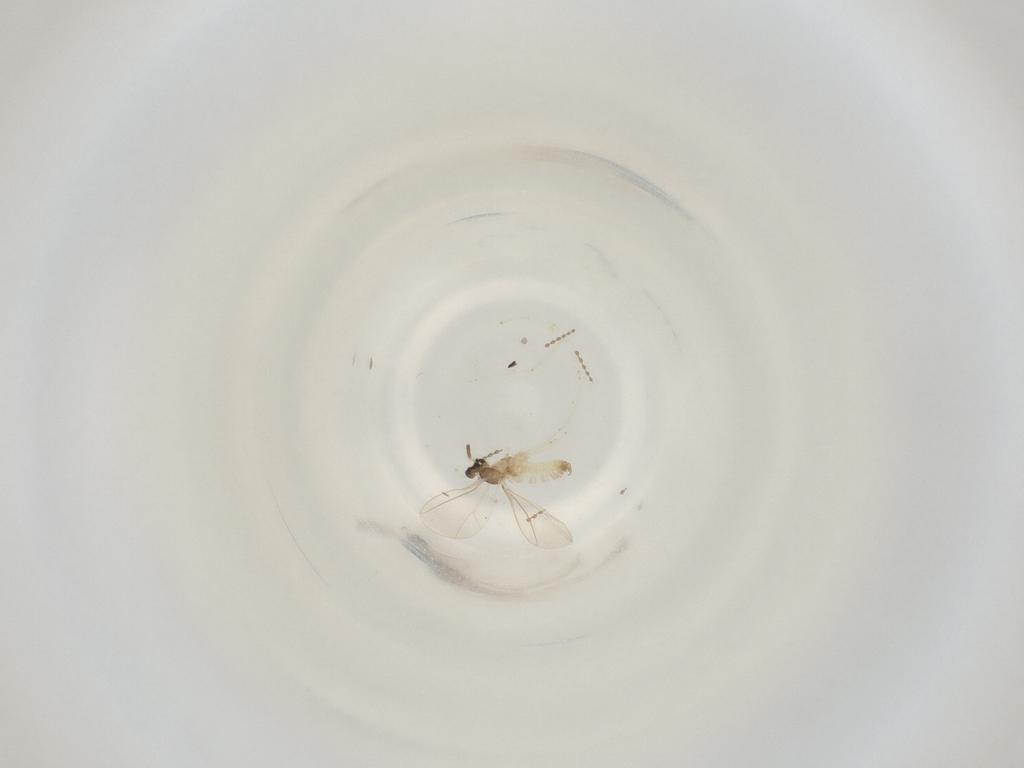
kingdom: Animalia
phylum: Arthropoda
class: Insecta
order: Diptera
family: Cecidomyiidae
